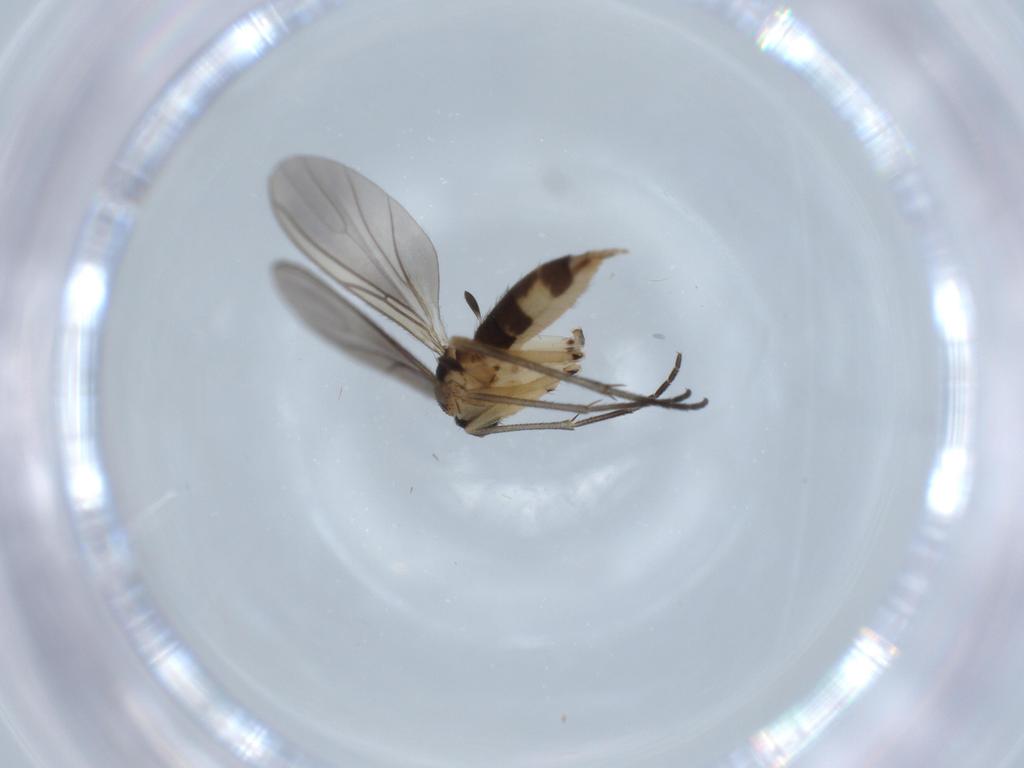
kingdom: Animalia
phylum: Arthropoda
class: Insecta
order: Diptera
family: Sciaridae
